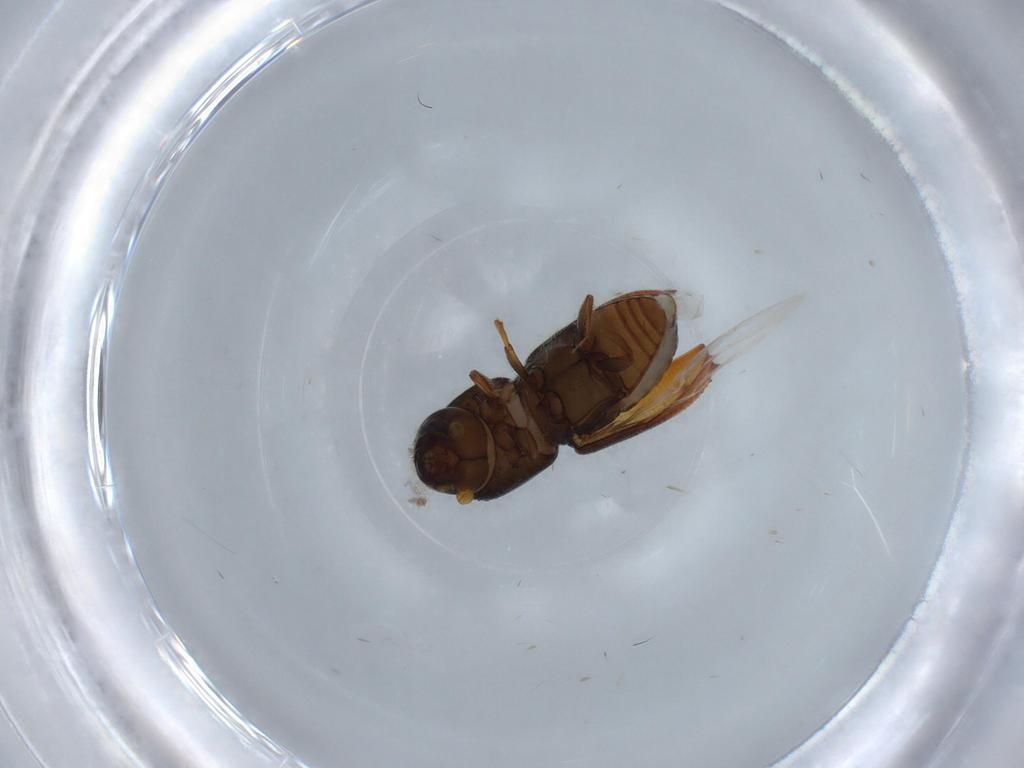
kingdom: Animalia
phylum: Arthropoda
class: Insecta
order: Coleoptera
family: Curculionidae
